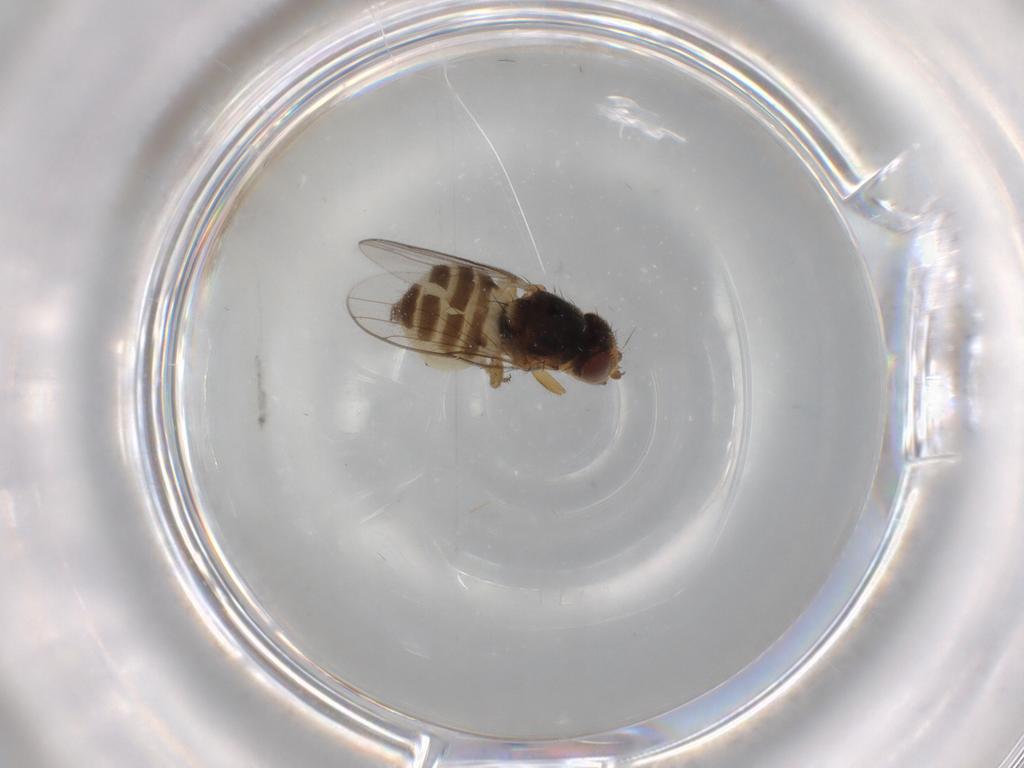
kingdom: Animalia
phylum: Arthropoda
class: Insecta
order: Diptera
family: Chloropidae
